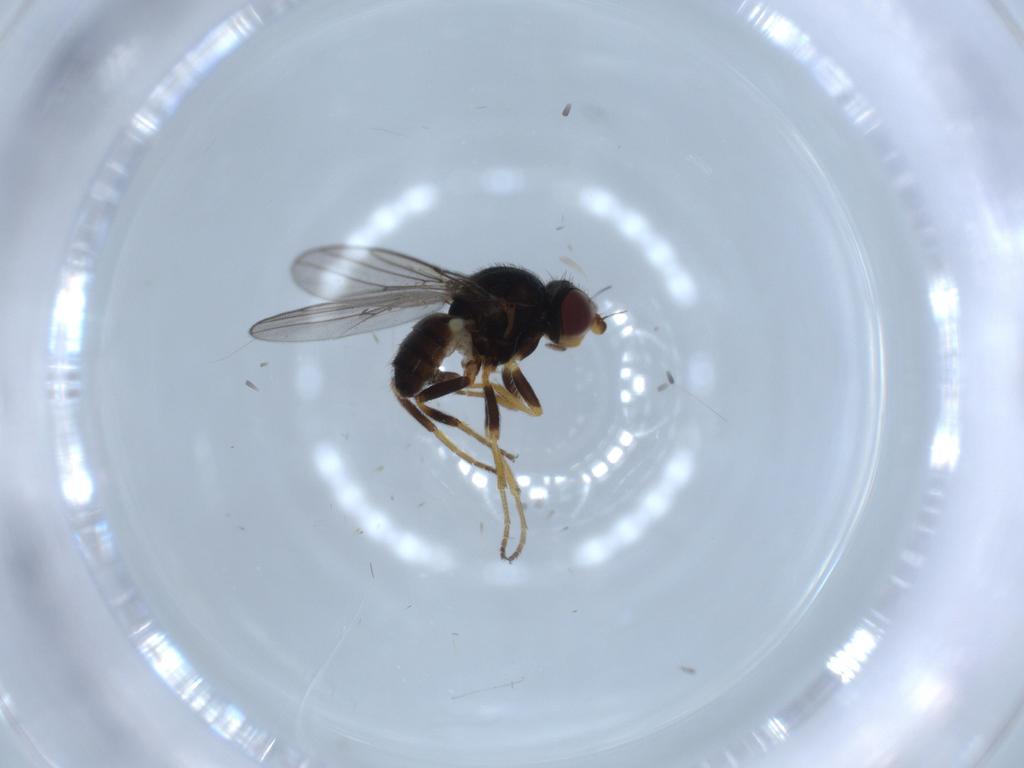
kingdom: Animalia
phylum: Arthropoda
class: Insecta
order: Diptera
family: Chloropidae
